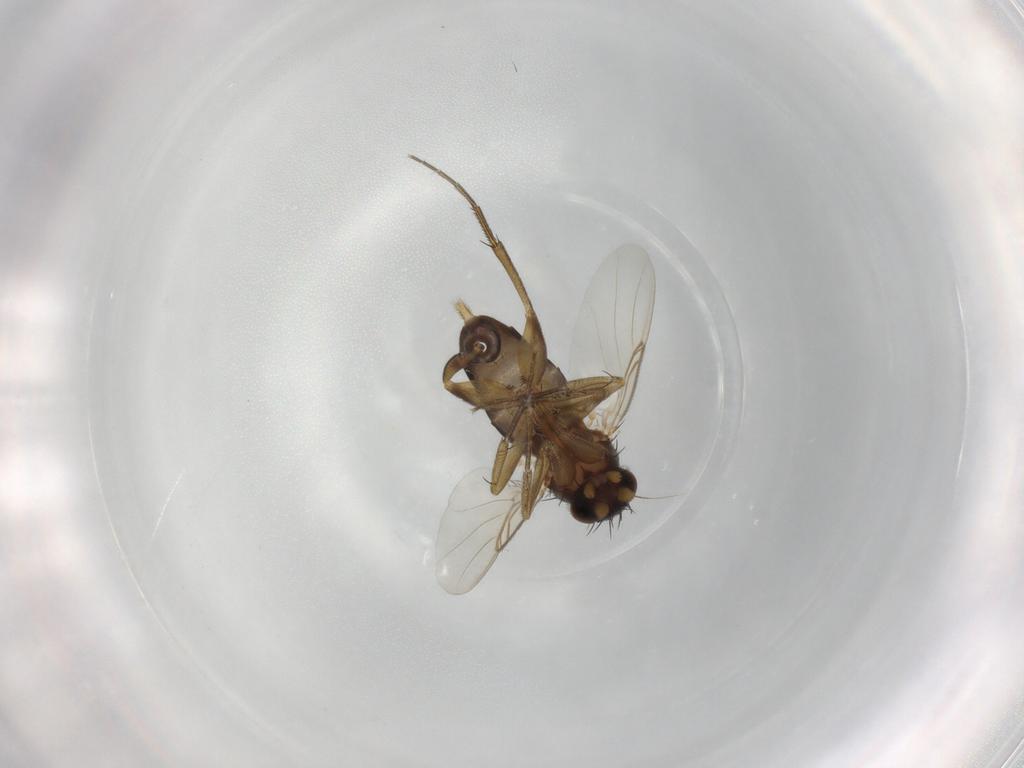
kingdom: Animalia
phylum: Arthropoda
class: Insecta
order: Diptera
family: Phoridae
